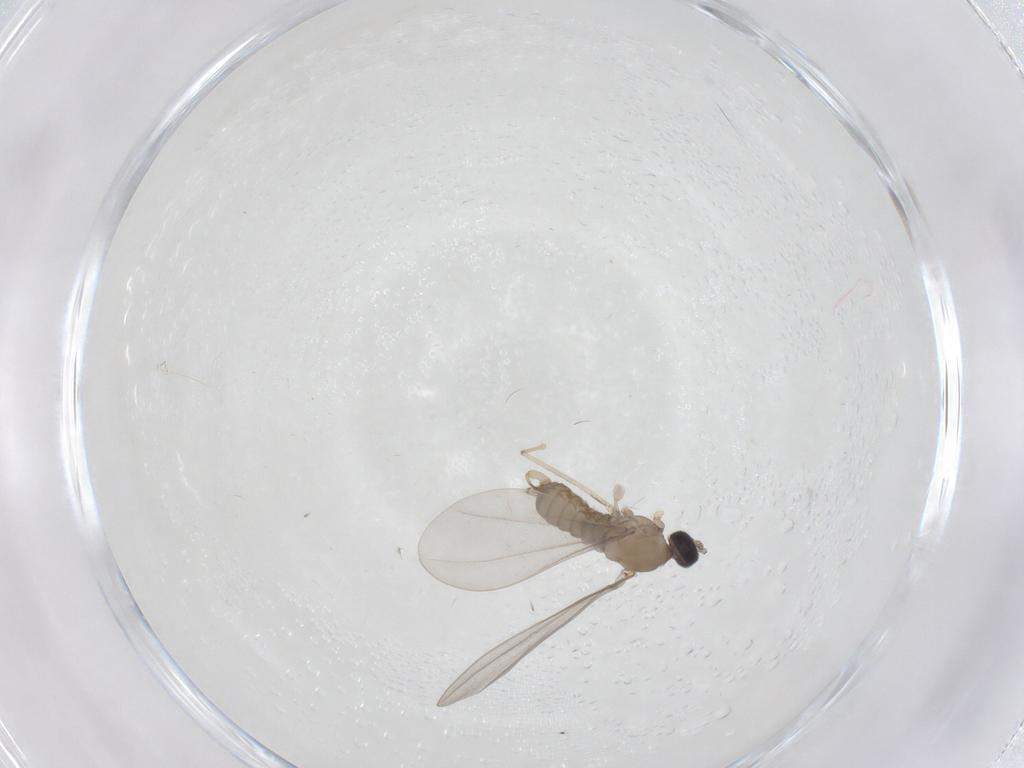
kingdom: Animalia
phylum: Arthropoda
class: Insecta
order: Diptera
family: Cecidomyiidae
